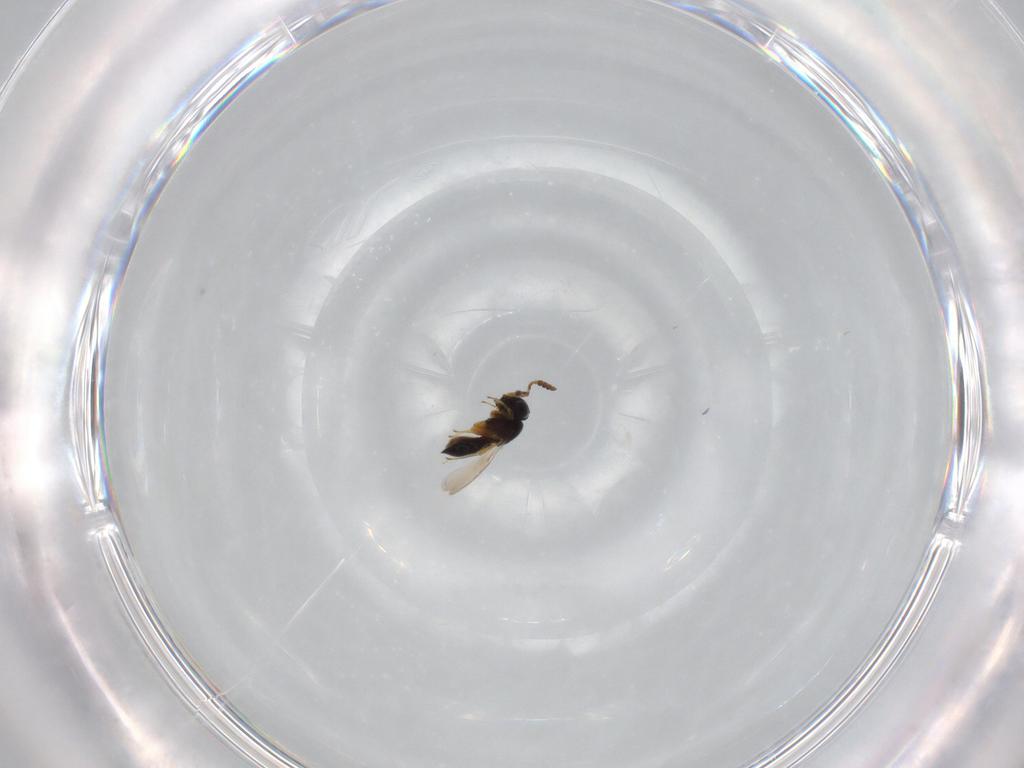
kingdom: Animalia
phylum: Arthropoda
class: Insecta
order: Hymenoptera
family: Scelionidae
